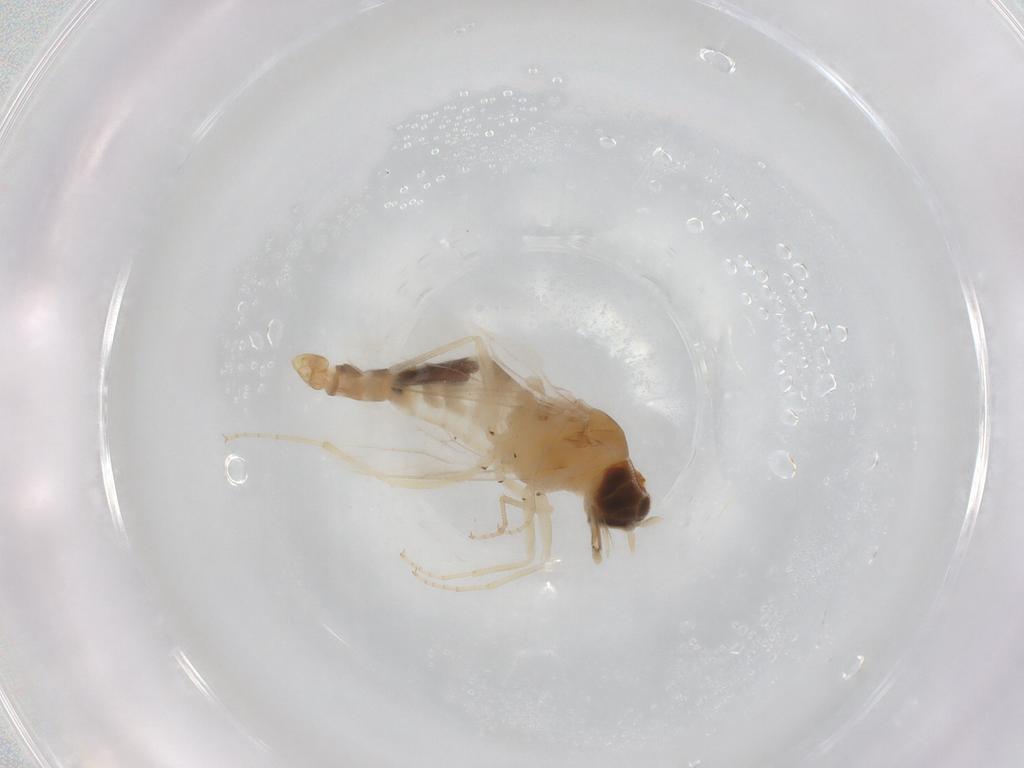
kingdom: Animalia
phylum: Arthropoda
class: Insecta
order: Diptera
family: Scenopinidae
